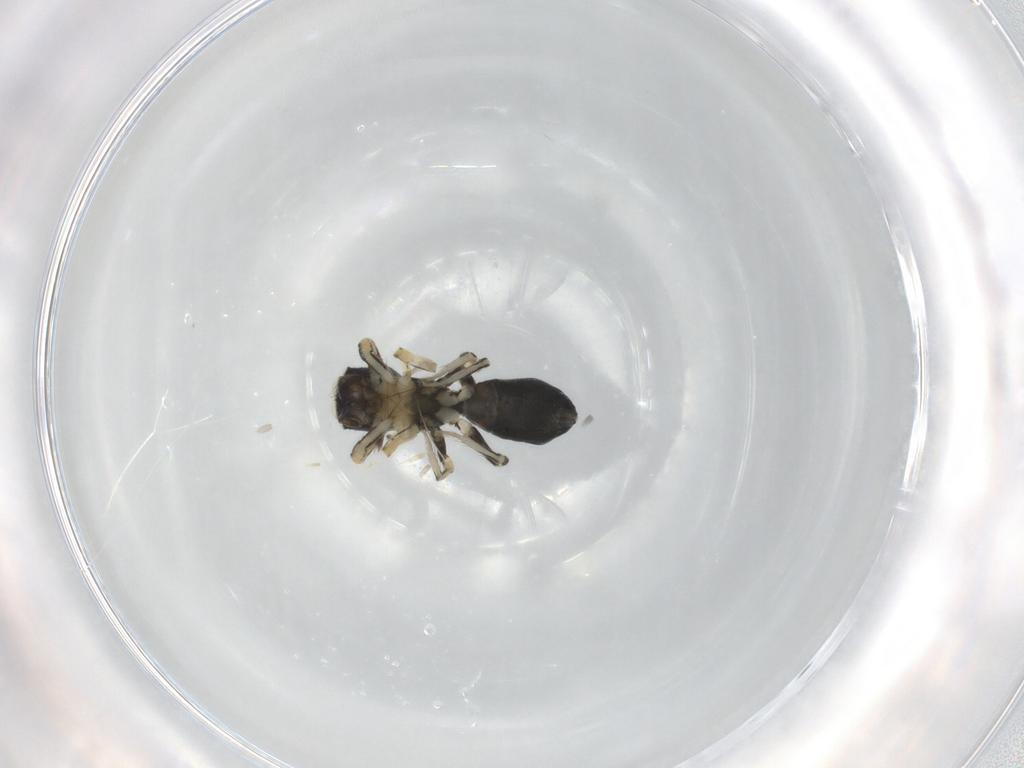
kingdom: Animalia
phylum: Arthropoda
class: Arachnida
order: Araneae
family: Salticidae
